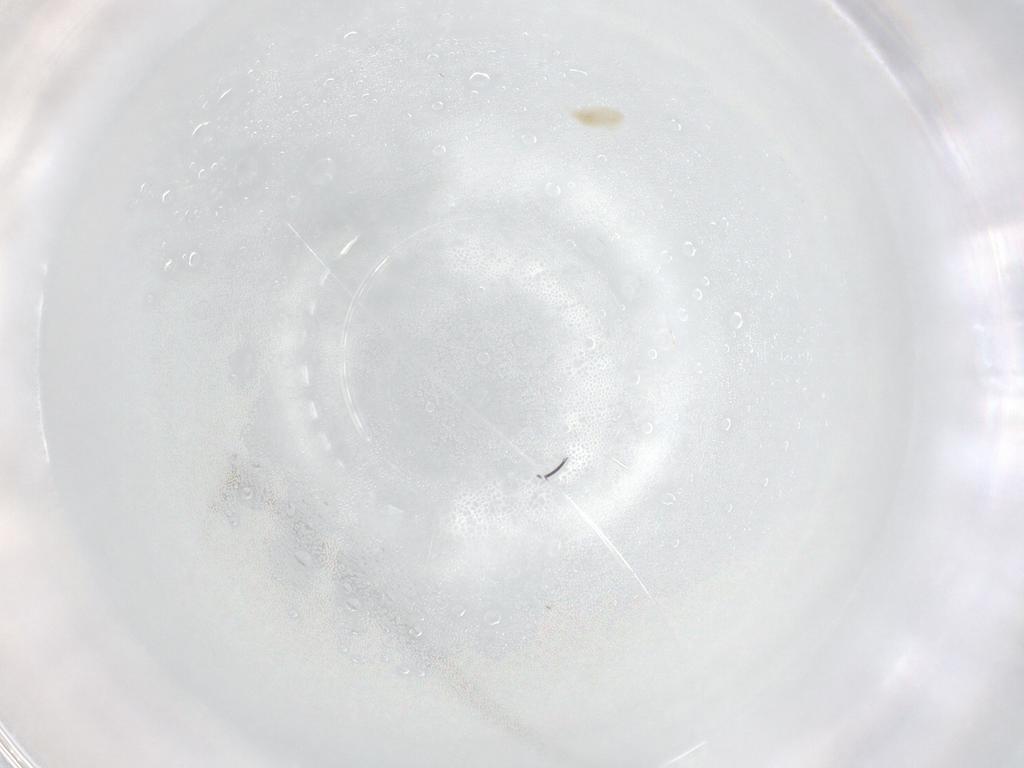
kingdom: Animalia
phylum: Arthropoda
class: Arachnida
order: Trombidiformes
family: Eupodidae
